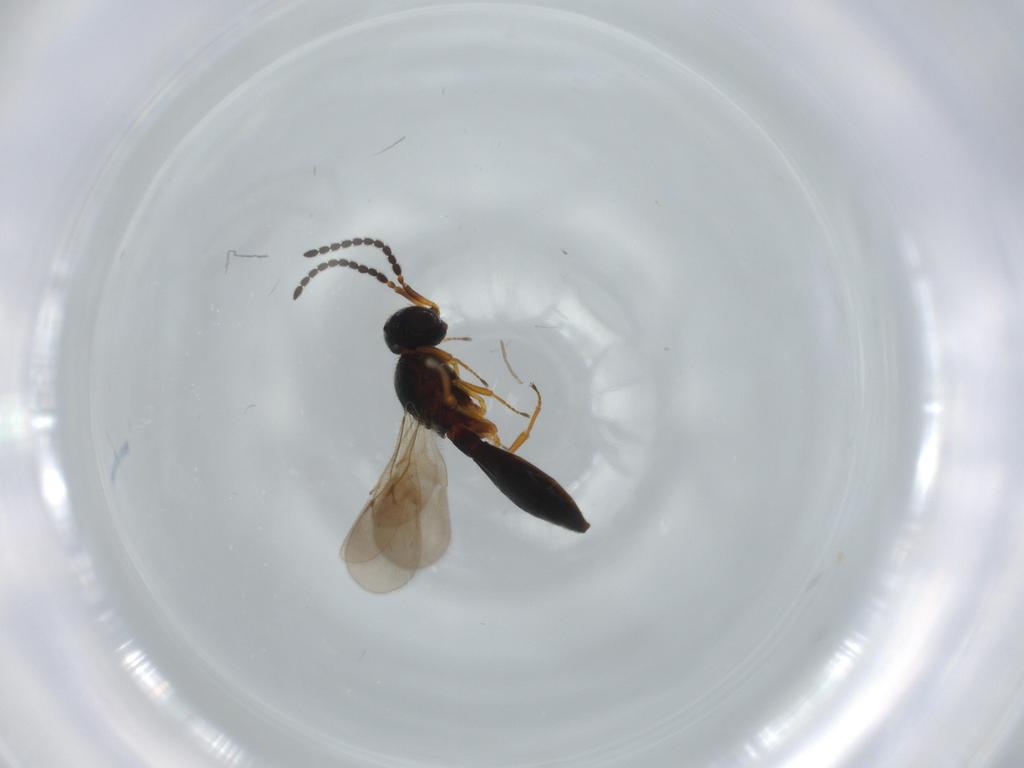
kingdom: Animalia
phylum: Arthropoda
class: Insecta
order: Hymenoptera
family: Scelionidae
